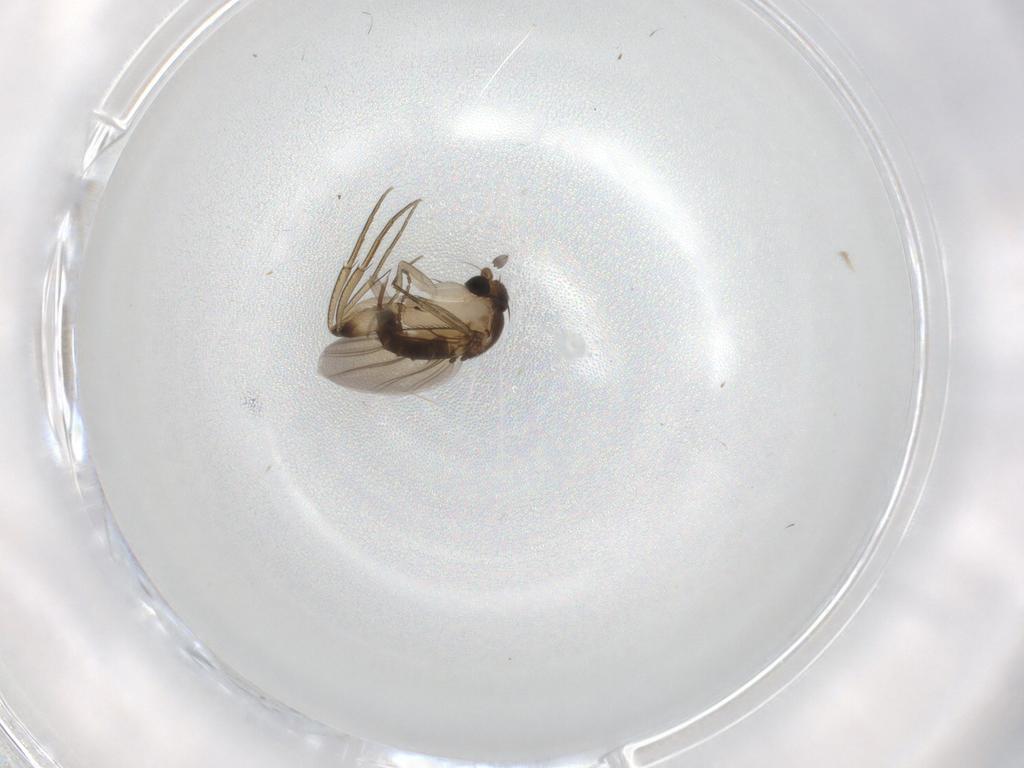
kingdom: Animalia
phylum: Arthropoda
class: Insecta
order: Diptera
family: Phoridae
